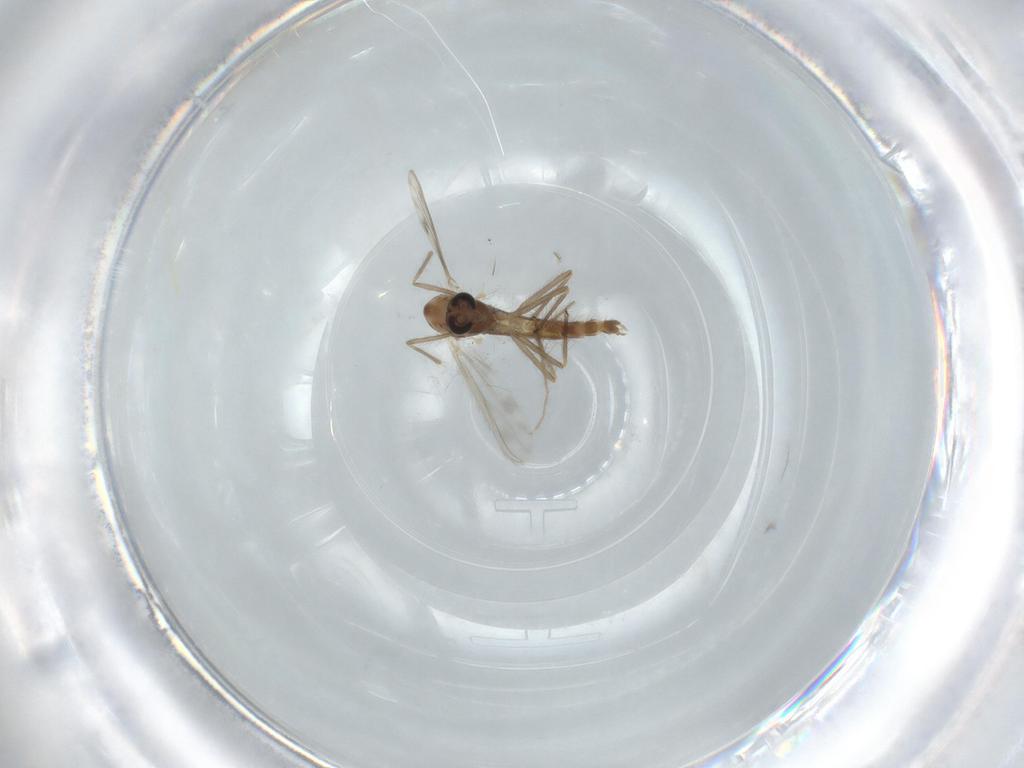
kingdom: Animalia
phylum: Arthropoda
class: Insecta
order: Diptera
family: Chironomidae
